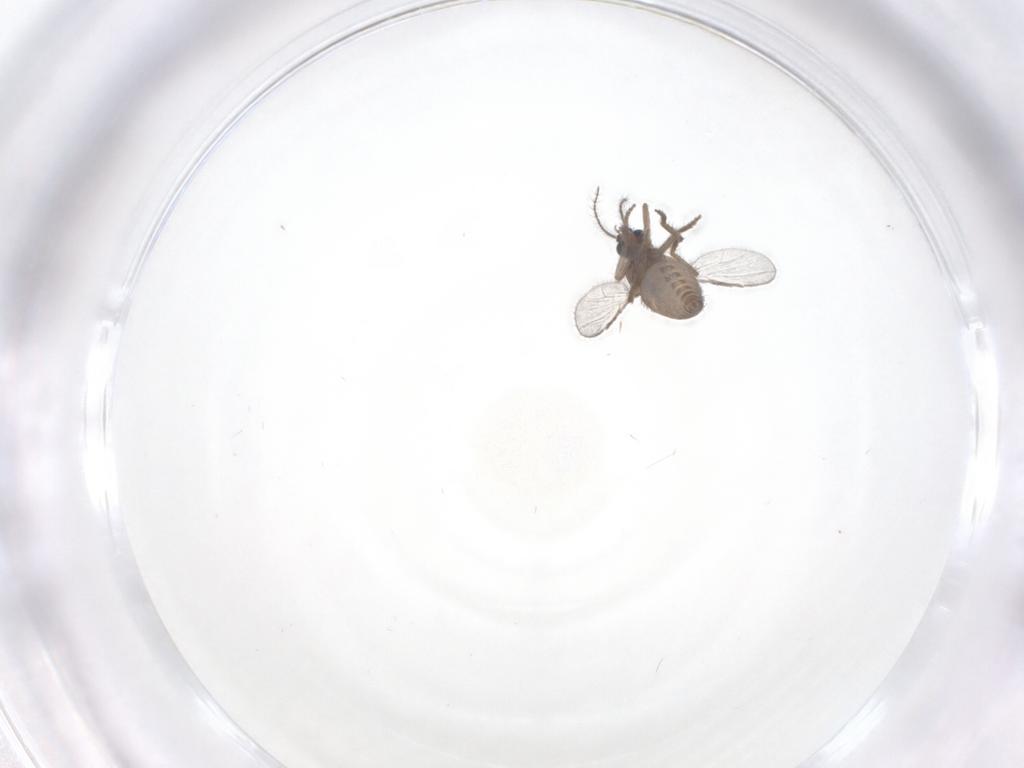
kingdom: Animalia
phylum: Arthropoda
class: Insecta
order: Diptera
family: Ceratopogonidae
